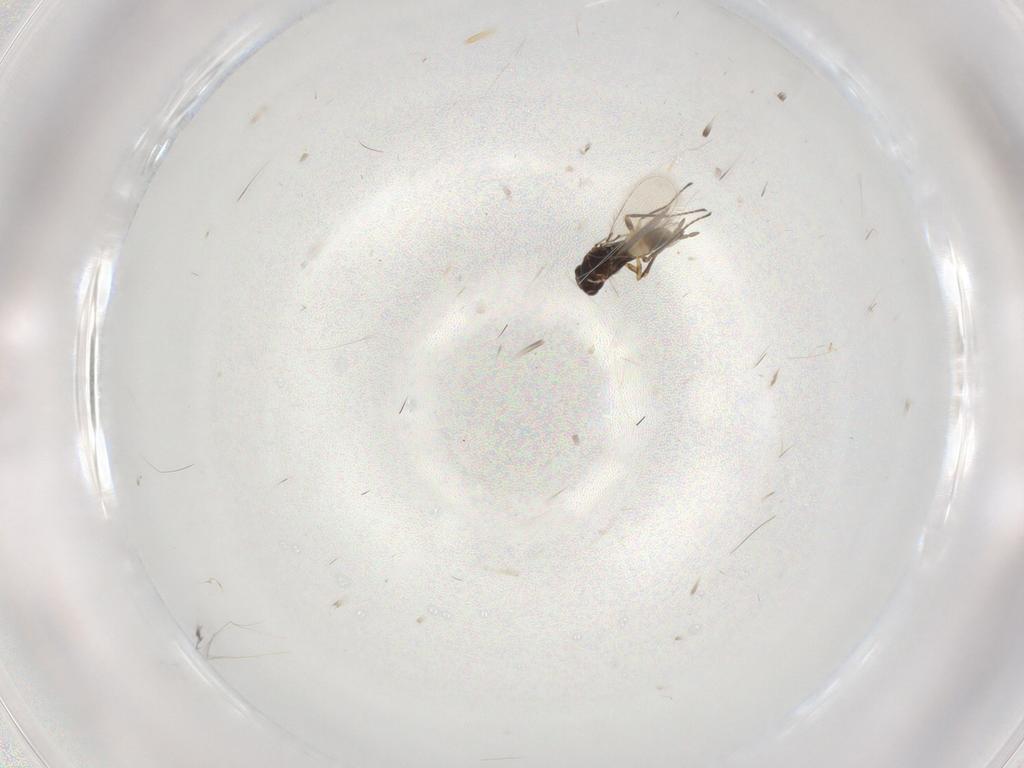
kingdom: Animalia
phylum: Arthropoda
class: Insecta
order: Hymenoptera
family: Mymaridae
